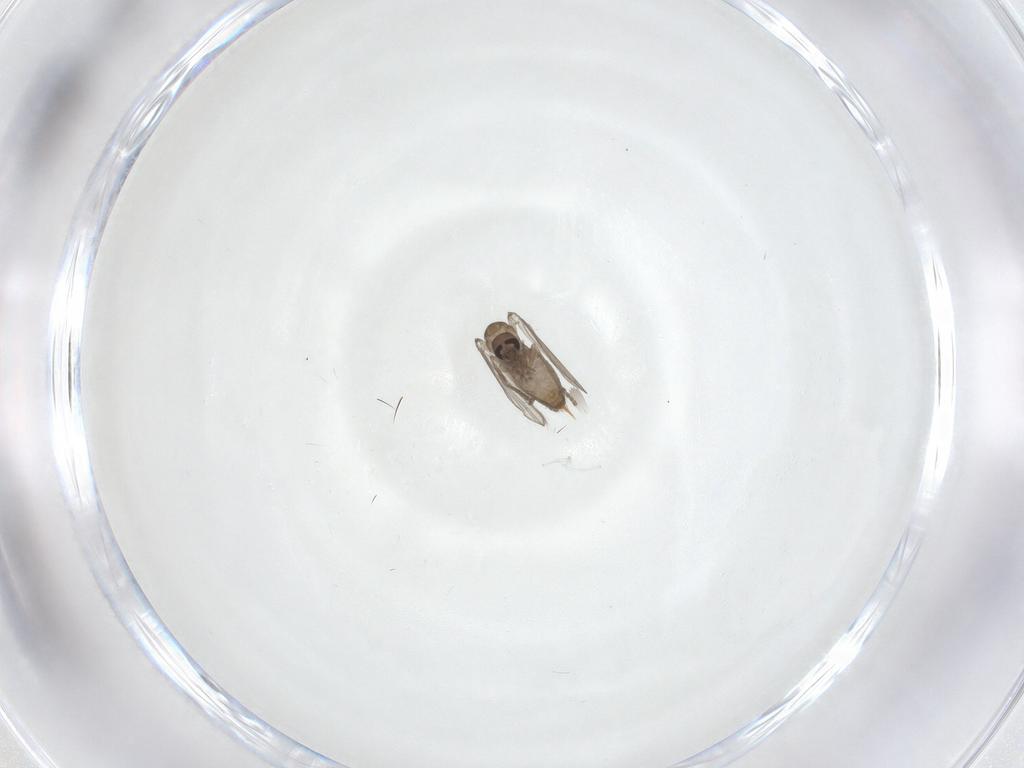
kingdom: Animalia
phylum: Arthropoda
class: Insecta
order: Diptera
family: Psychodidae
